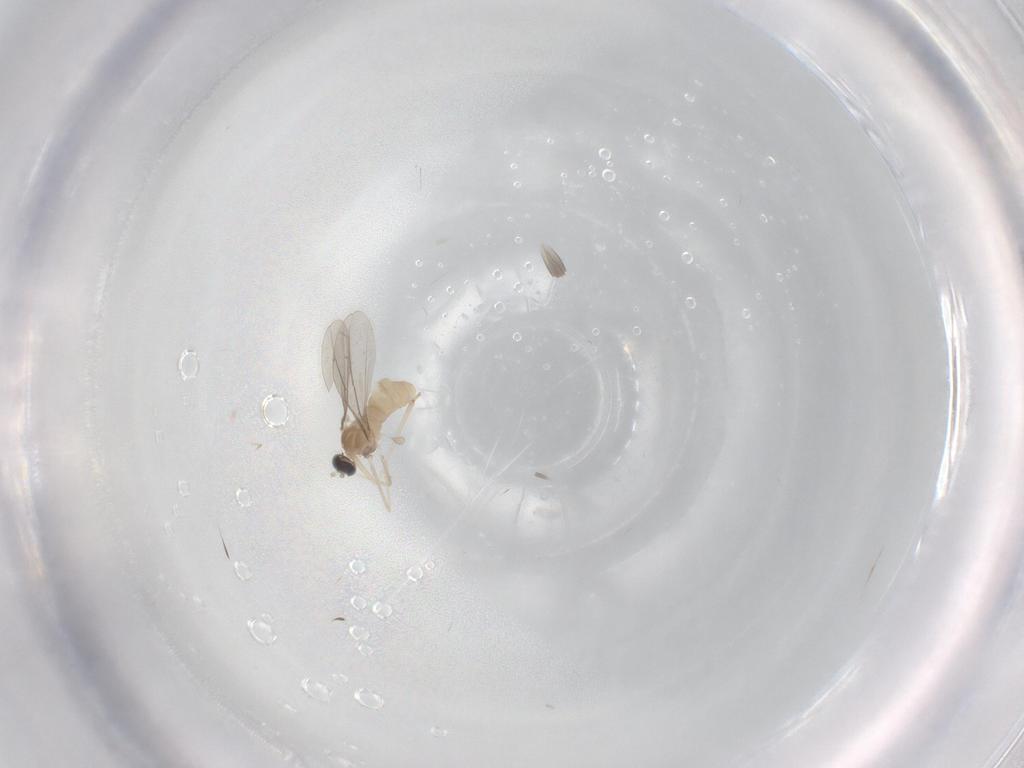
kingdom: Animalia
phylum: Arthropoda
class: Insecta
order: Diptera
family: Cecidomyiidae
